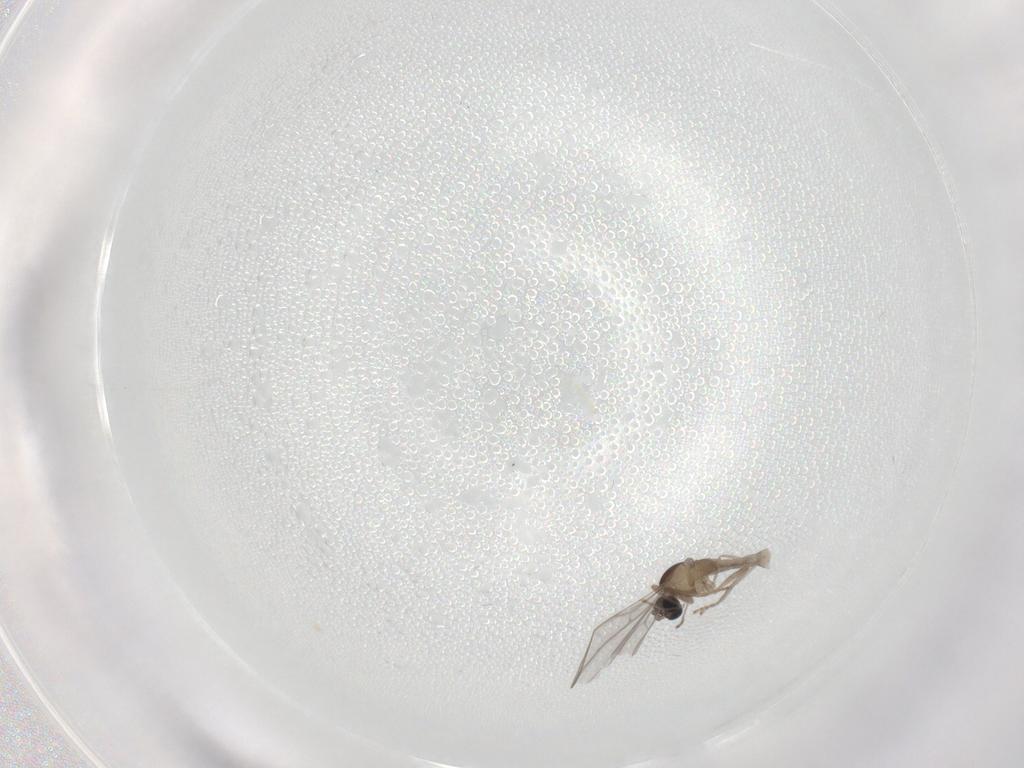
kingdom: Animalia
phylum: Arthropoda
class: Insecta
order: Diptera
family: Cecidomyiidae
